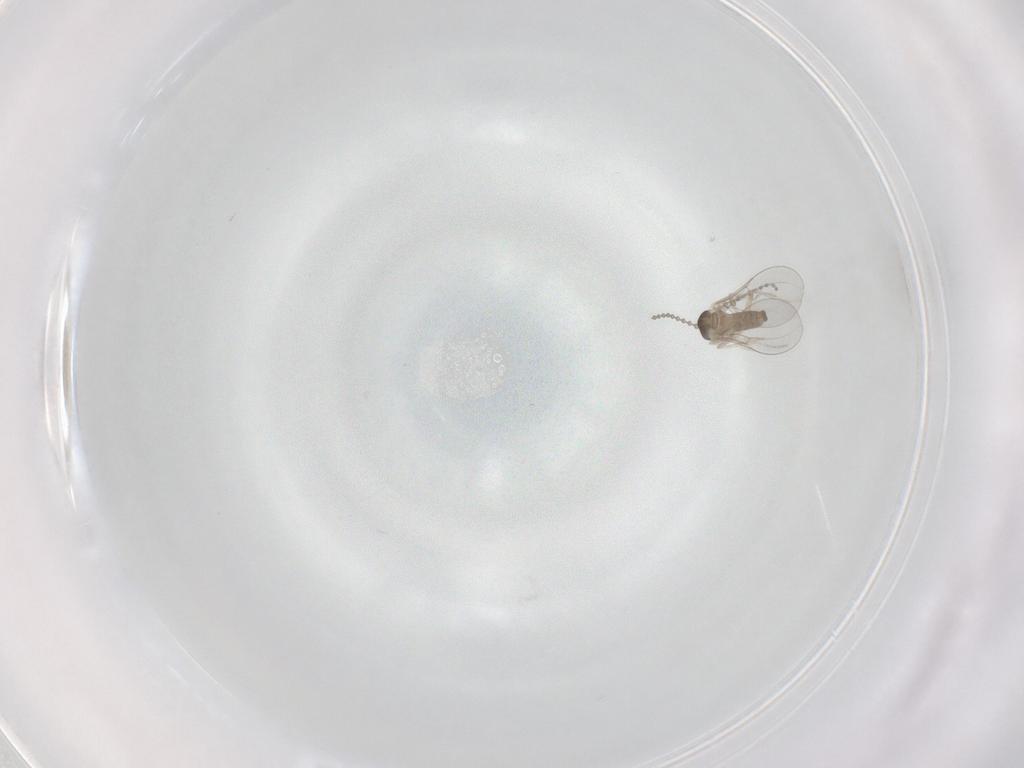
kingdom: Animalia
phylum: Arthropoda
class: Insecta
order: Diptera
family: Cecidomyiidae
